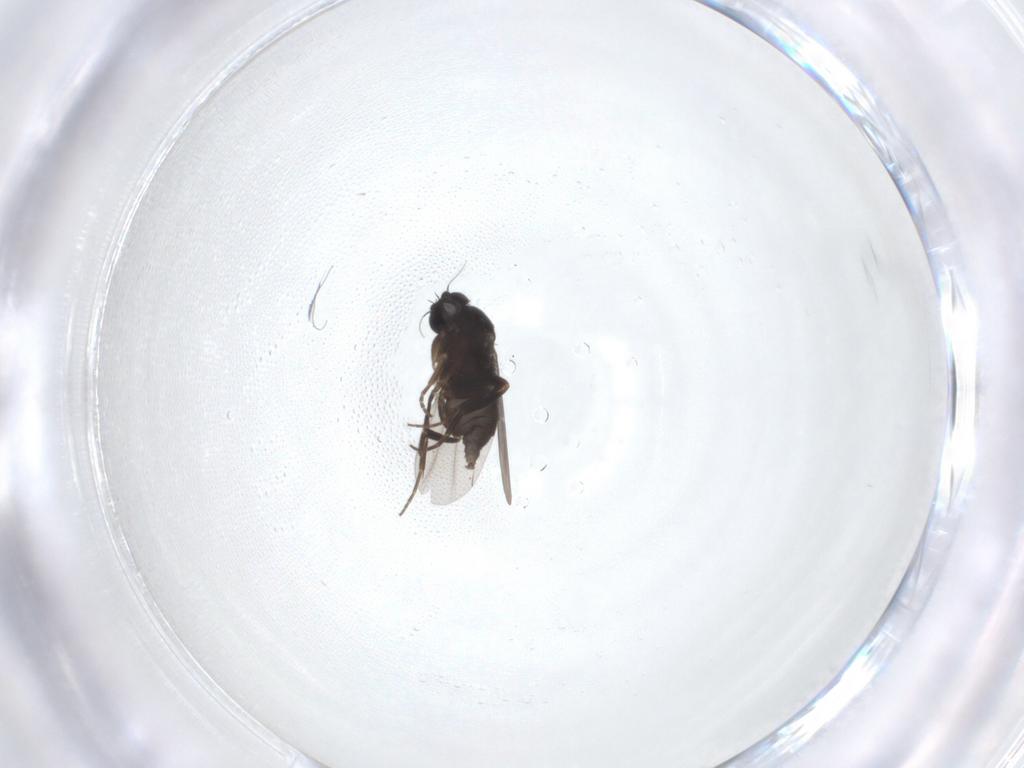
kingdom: Animalia
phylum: Arthropoda
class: Insecta
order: Diptera
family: Phoridae
